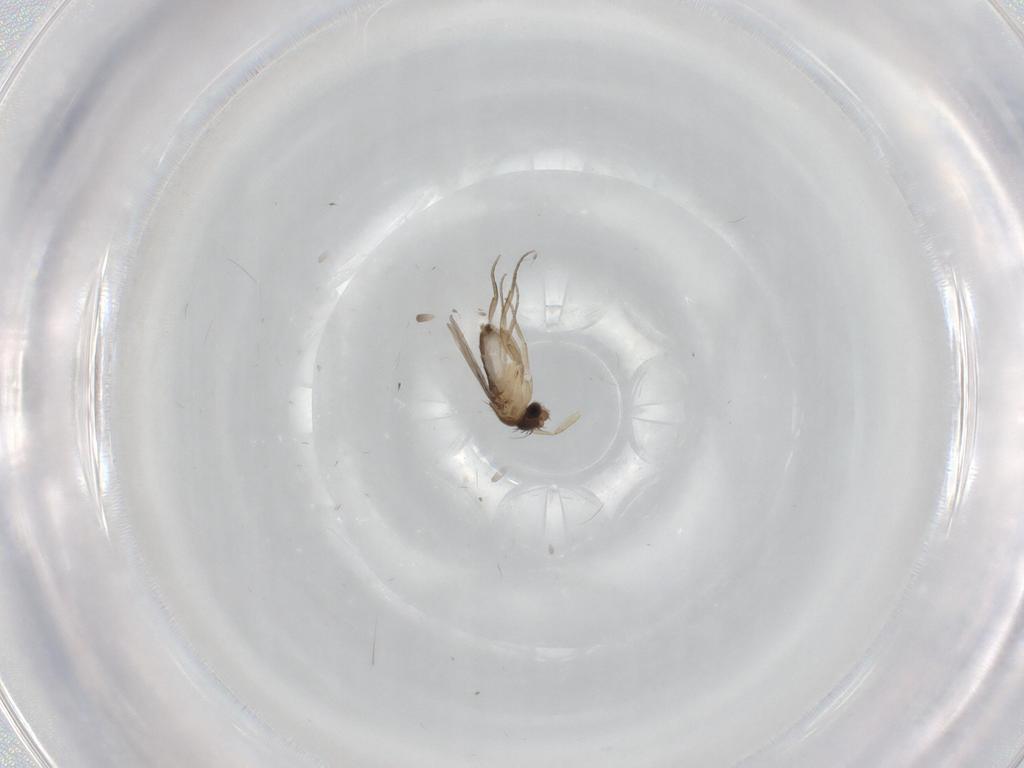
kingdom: Animalia
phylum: Arthropoda
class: Insecta
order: Diptera
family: Phoridae
